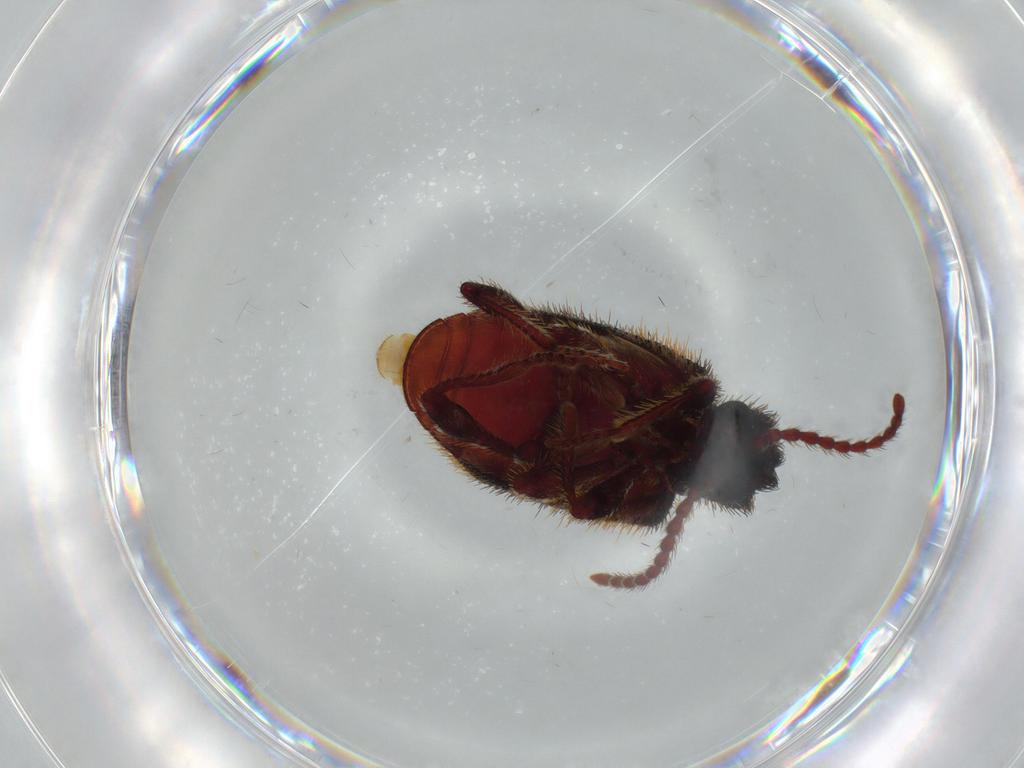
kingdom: Animalia
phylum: Arthropoda
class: Insecta
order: Coleoptera
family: Ptinidae
